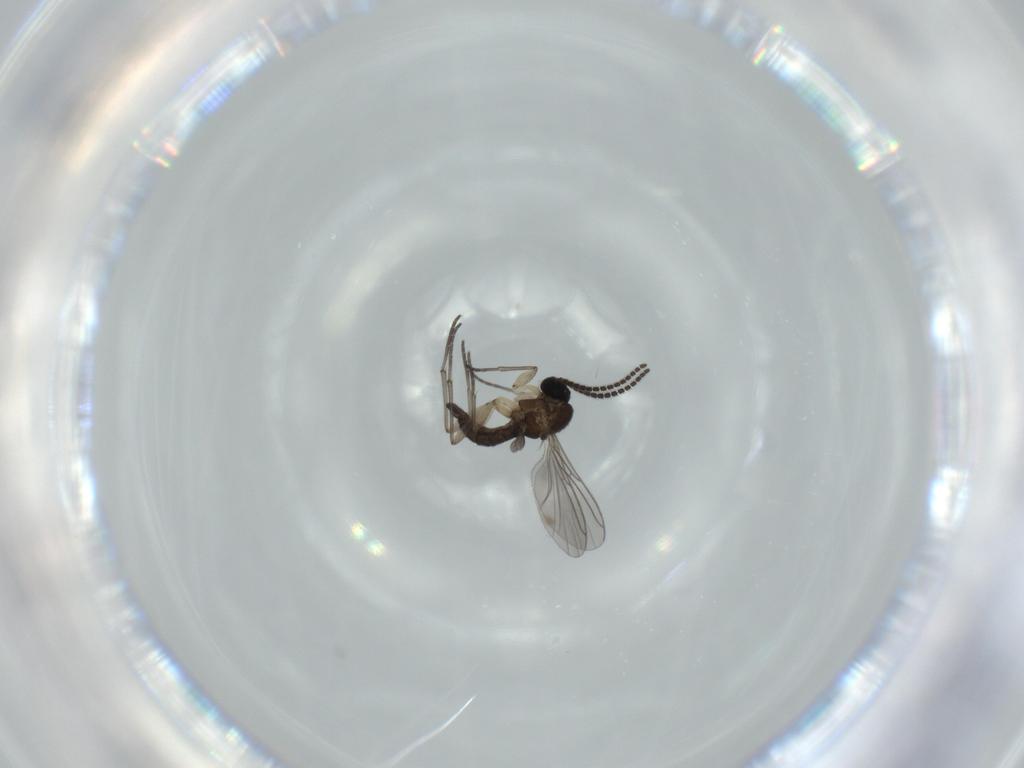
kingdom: Animalia
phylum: Arthropoda
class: Insecta
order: Diptera
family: Sciaridae
